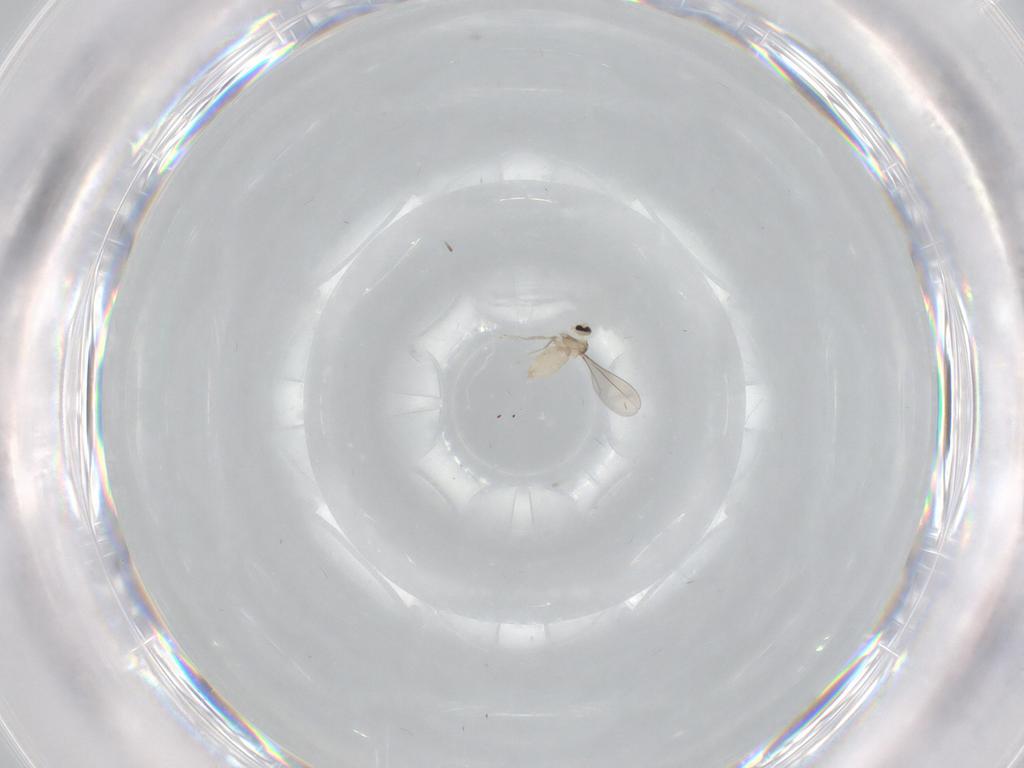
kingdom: Animalia
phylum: Arthropoda
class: Insecta
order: Diptera
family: Cecidomyiidae
